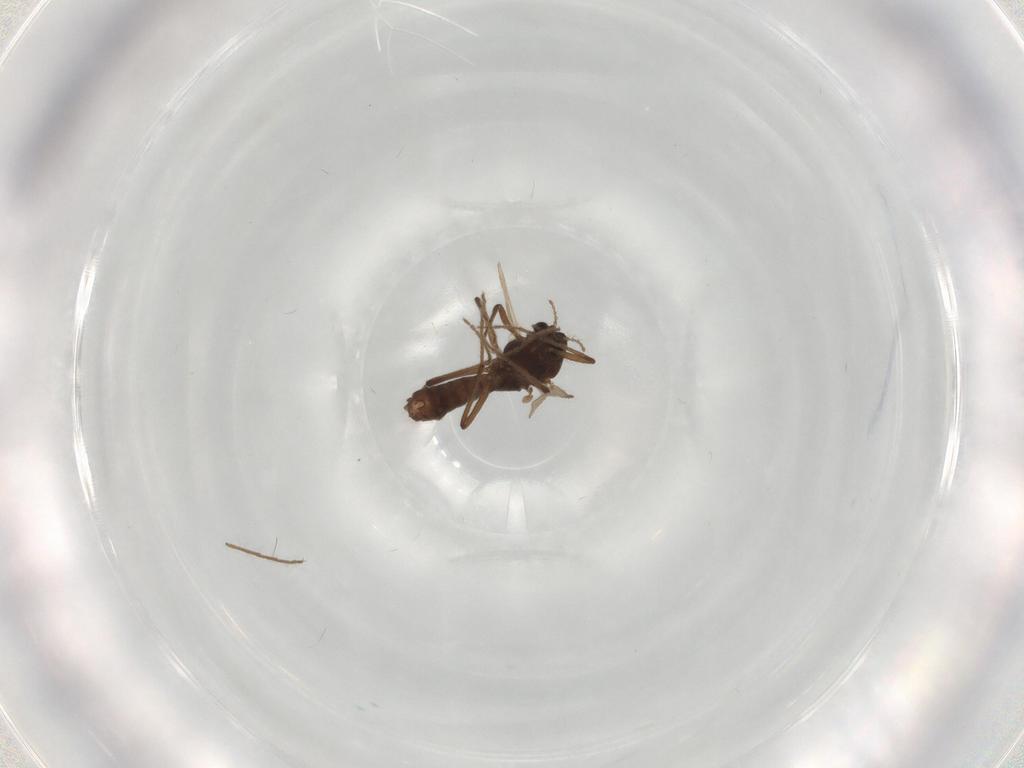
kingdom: Animalia
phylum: Arthropoda
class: Insecta
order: Diptera
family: Chironomidae
